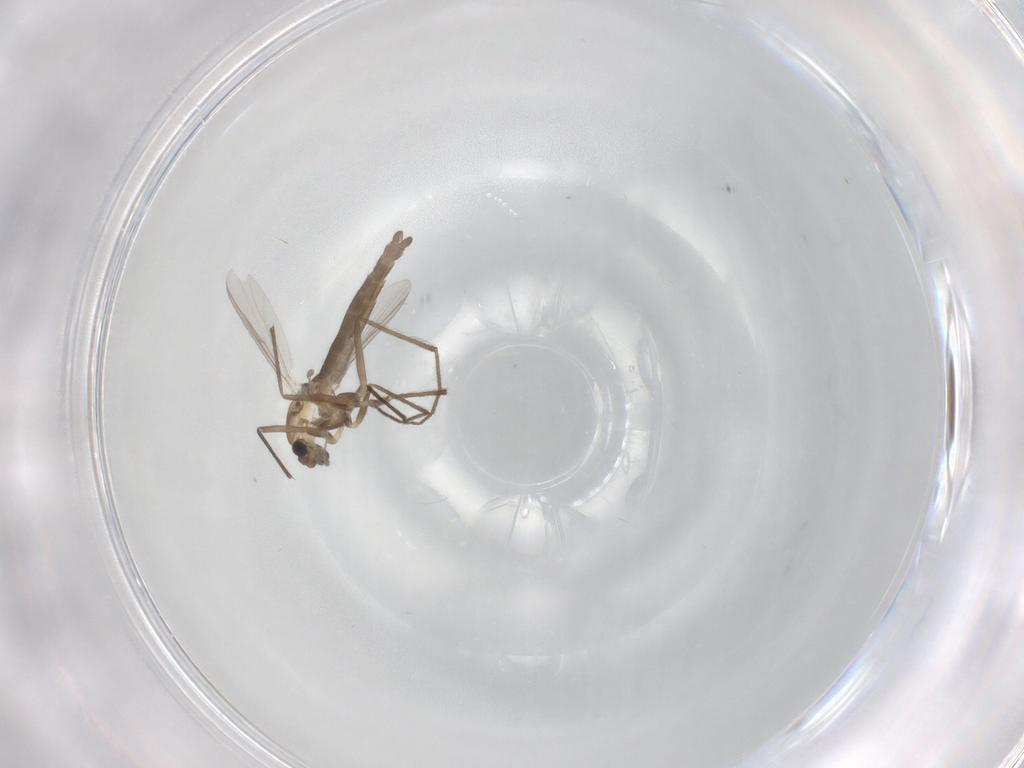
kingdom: Animalia
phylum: Arthropoda
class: Insecta
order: Diptera
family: Chironomidae
